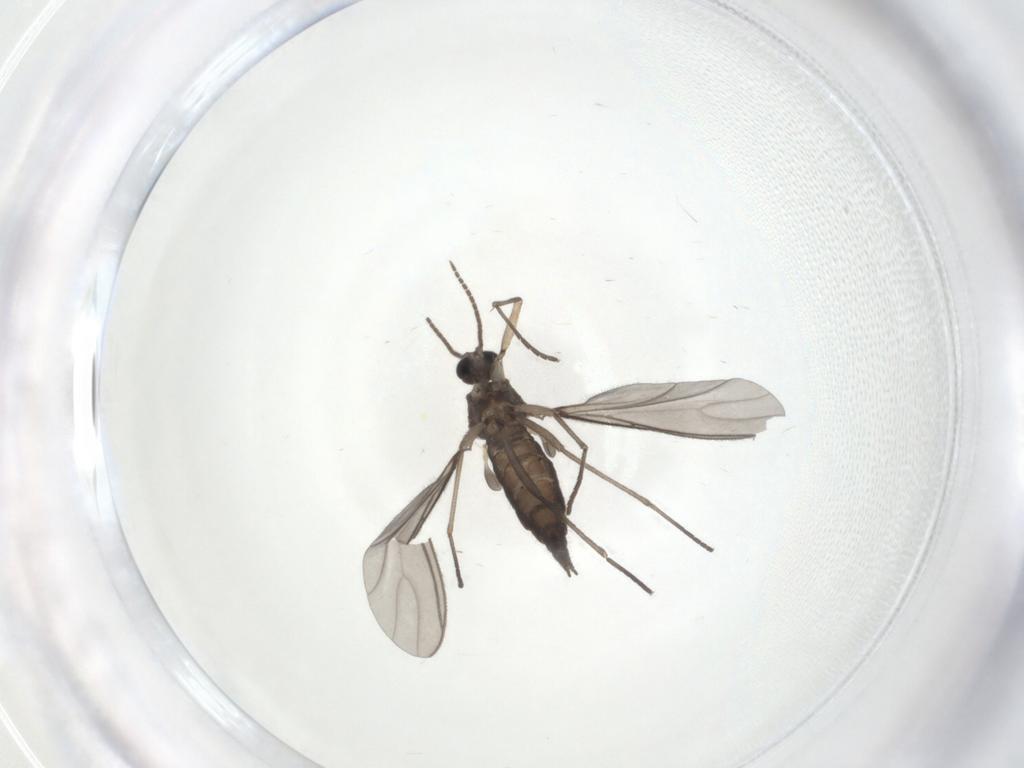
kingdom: Animalia
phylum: Arthropoda
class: Insecta
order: Diptera
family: Sciaridae
